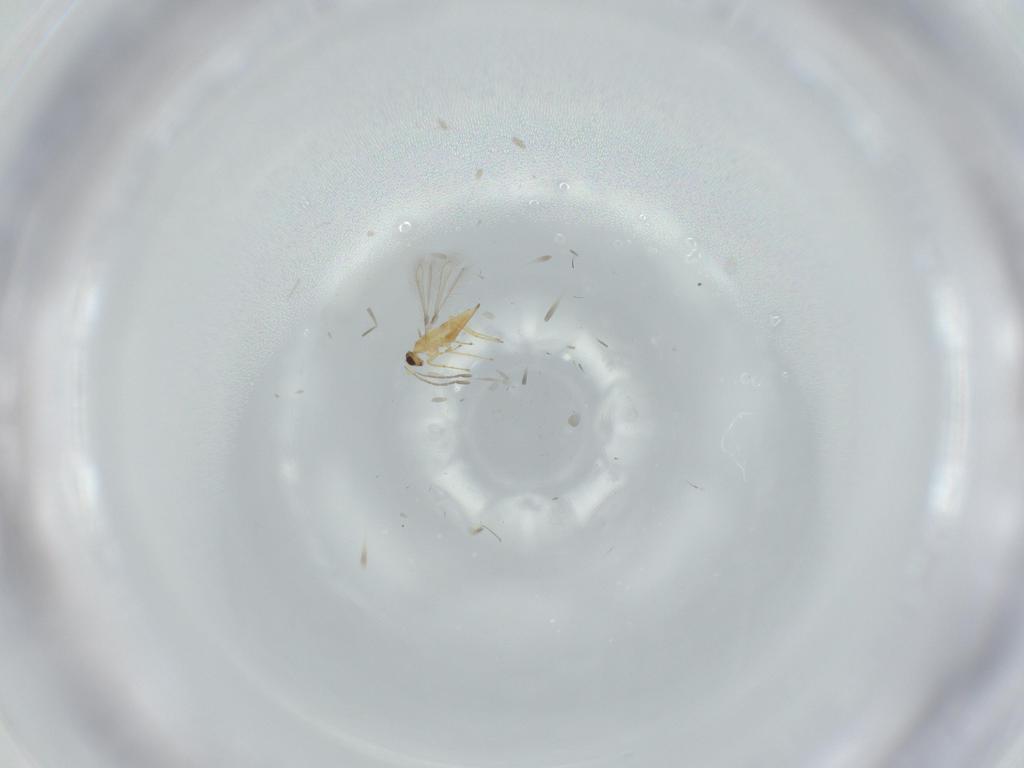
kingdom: Animalia
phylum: Arthropoda
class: Insecta
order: Hymenoptera
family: Mymaridae
